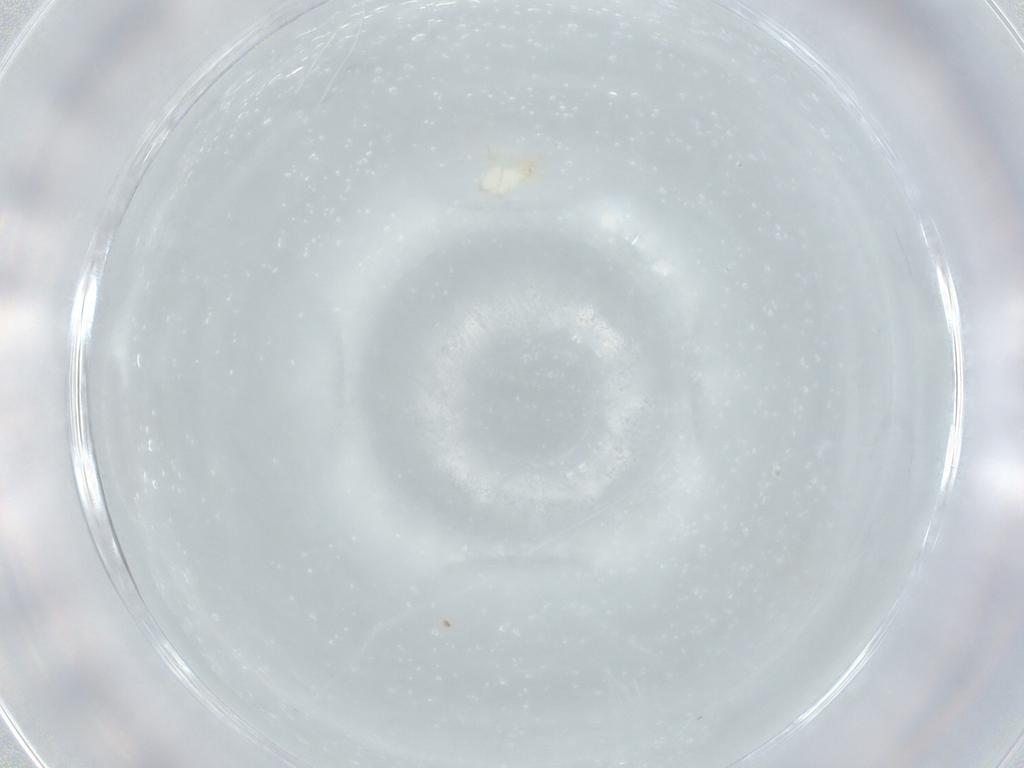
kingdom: Animalia
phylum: Arthropoda
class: Arachnida
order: Trombidiformes
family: Erythraeidae
